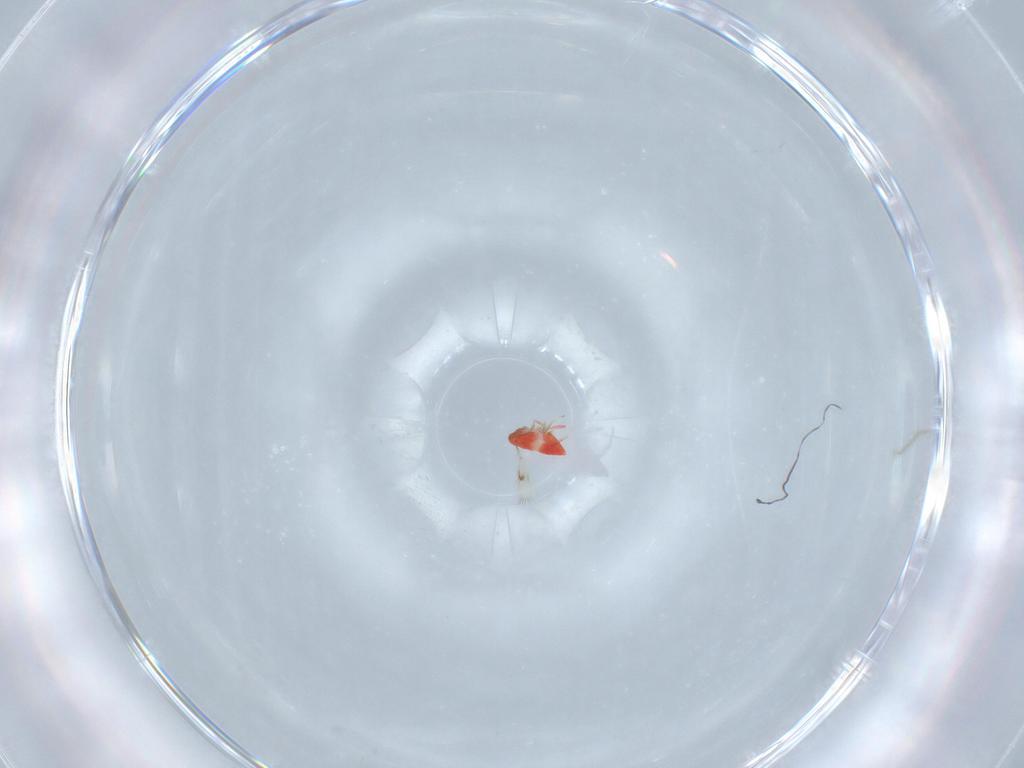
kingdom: Animalia
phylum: Arthropoda
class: Insecta
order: Hymenoptera
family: Trichogrammatidae
